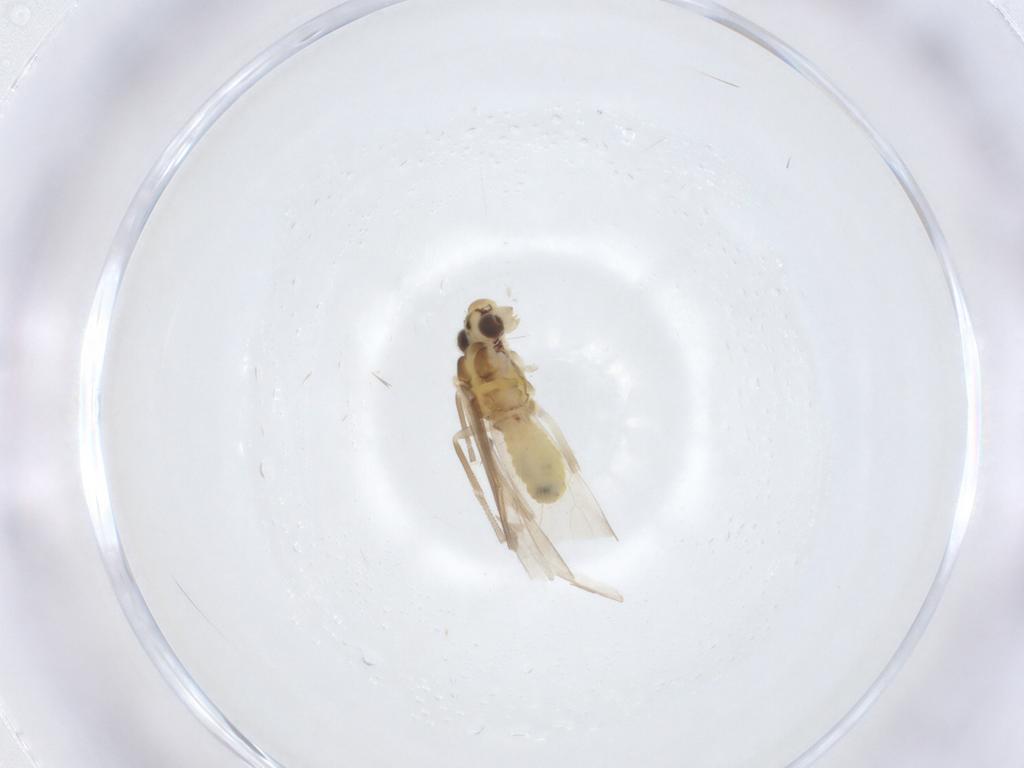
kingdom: Animalia
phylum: Arthropoda
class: Insecta
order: Psocodea
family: Caeciliusidae
